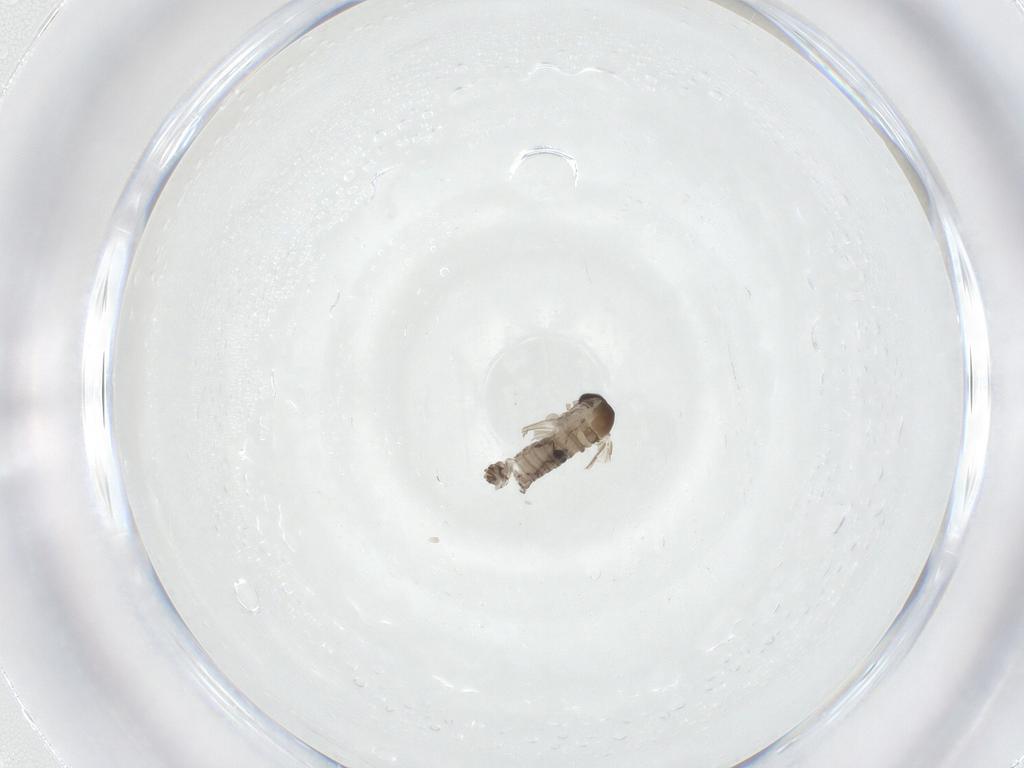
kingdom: Animalia
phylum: Arthropoda
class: Insecta
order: Diptera
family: Psychodidae
